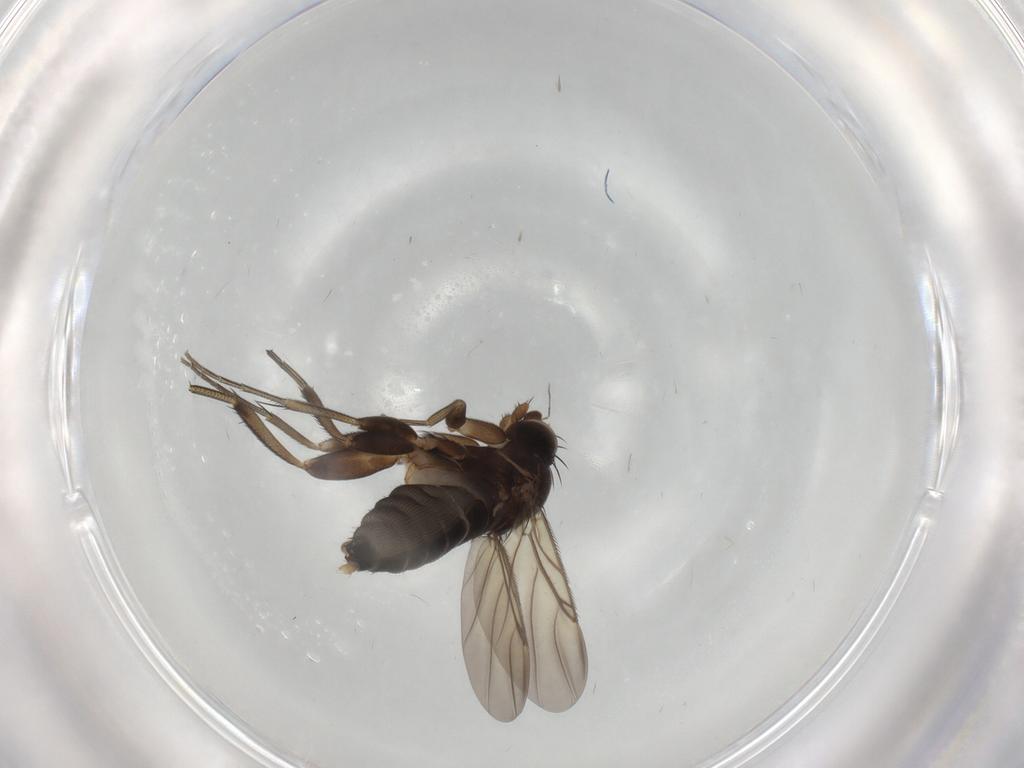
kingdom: Animalia
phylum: Arthropoda
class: Insecta
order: Diptera
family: Phoridae
